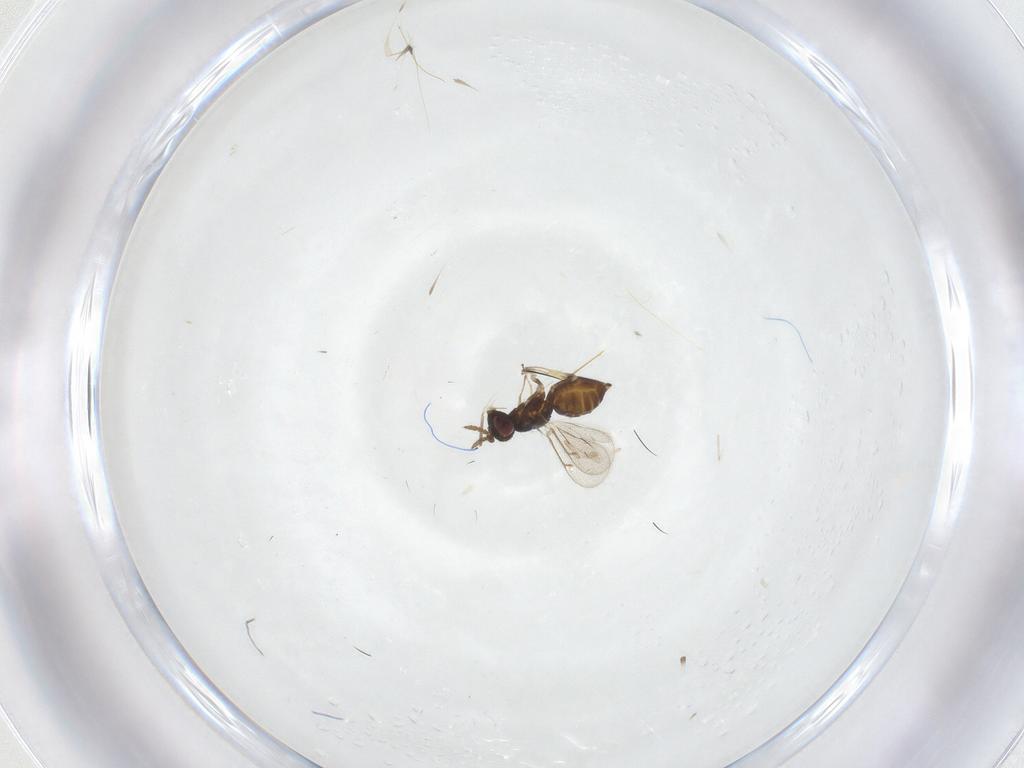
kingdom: Animalia
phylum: Arthropoda
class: Insecta
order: Hymenoptera
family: Eulophidae
